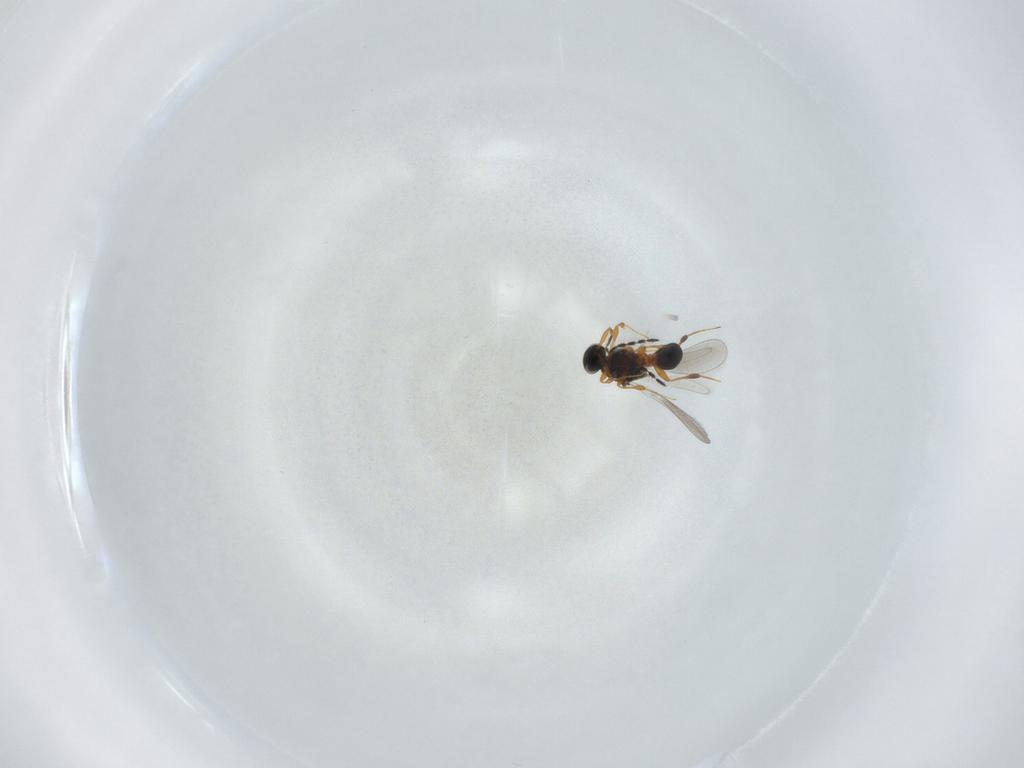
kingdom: Animalia
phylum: Arthropoda
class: Insecta
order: Hymenoptera
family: Platygastridae
